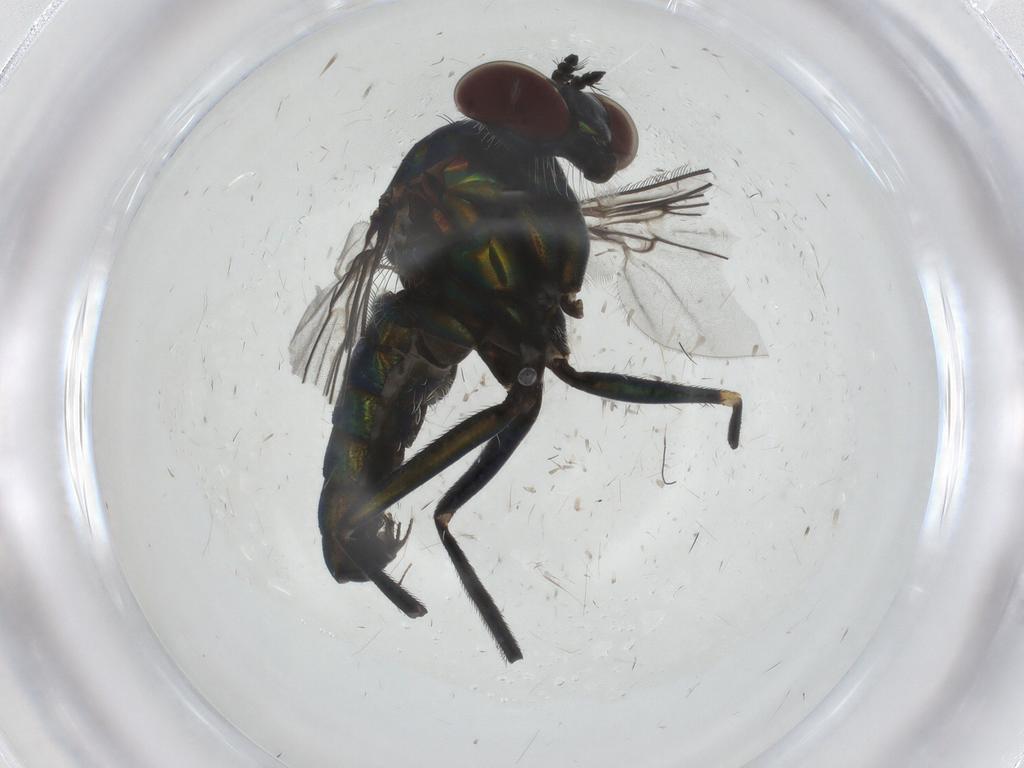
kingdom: Animalia
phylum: Arthropoda
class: Insecta
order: Diptera
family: Dolichopodidae
